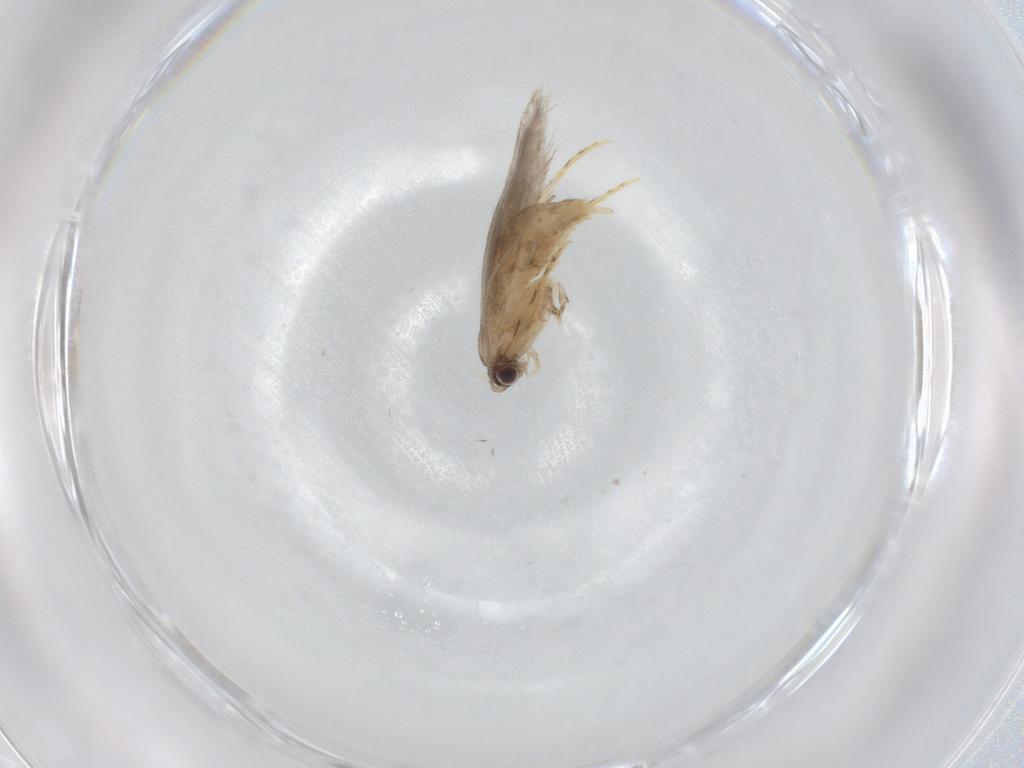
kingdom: Animalia
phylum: Arthropoda
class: Insecta
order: Lepidoptera
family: Tineidae
